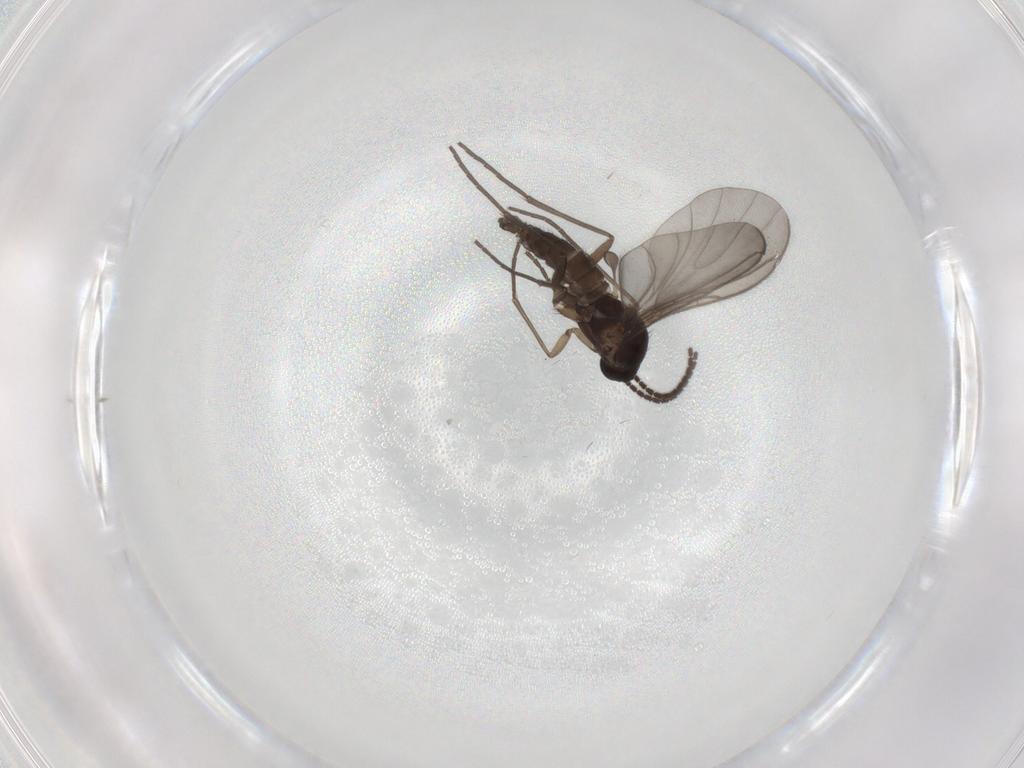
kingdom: Animalia
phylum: Arthropoda
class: Insecta
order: Diptera
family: Sciaridae
